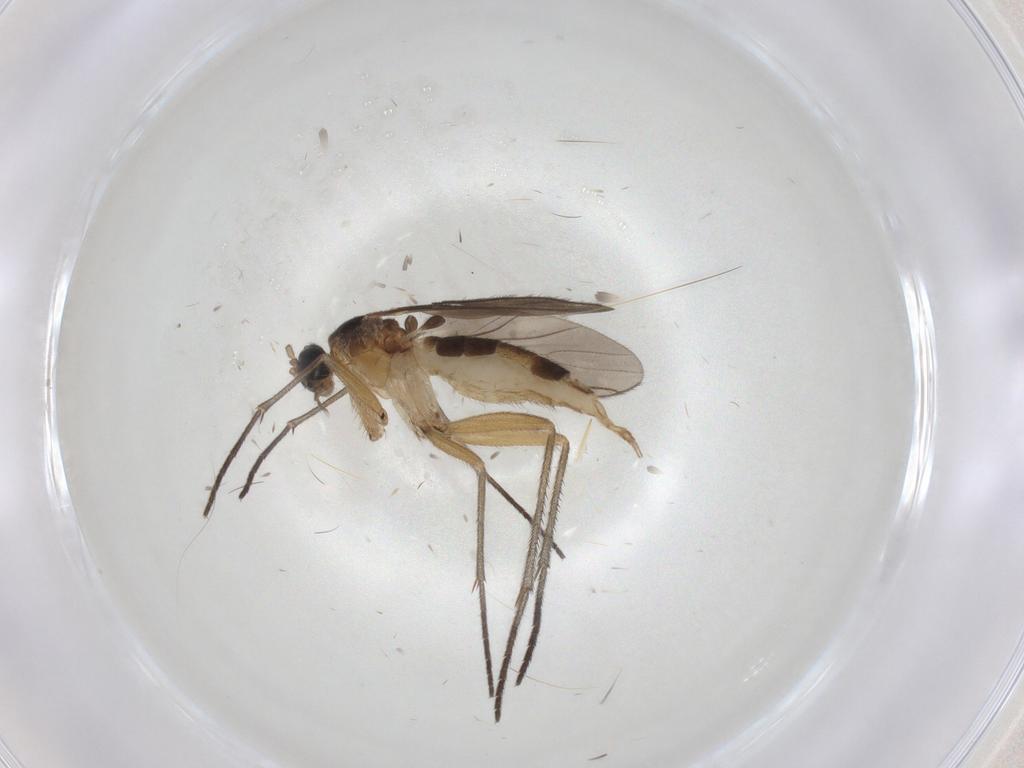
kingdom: Animalia
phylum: Arthropoda
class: Insecta
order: Diptera
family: Sciaridae
